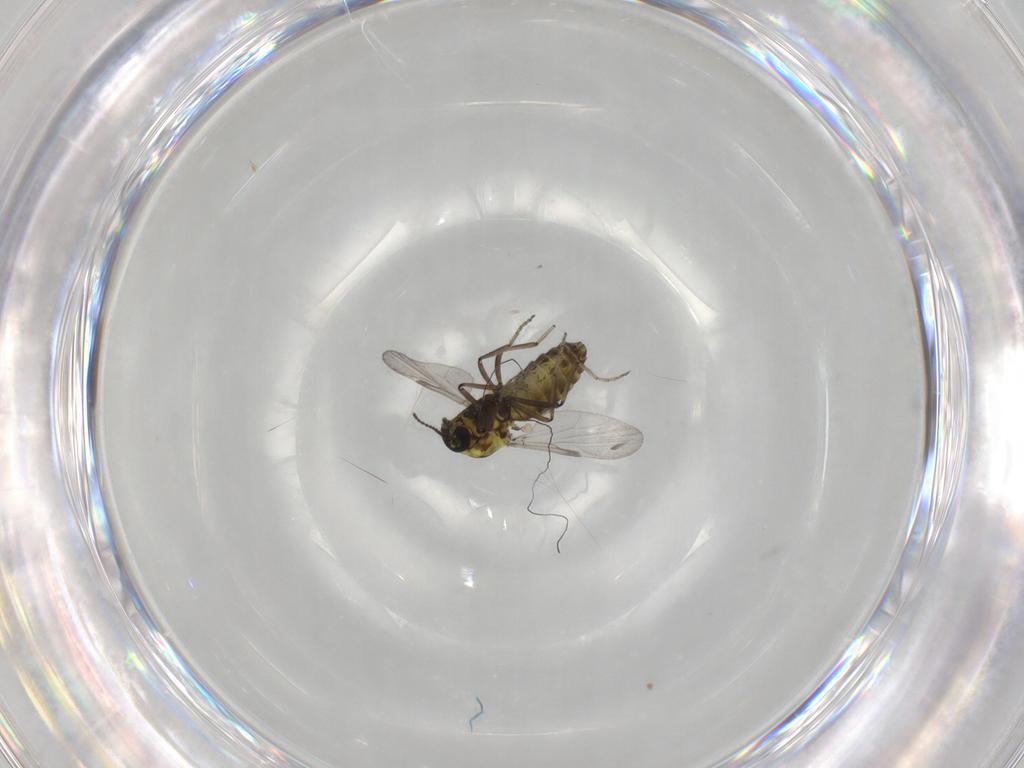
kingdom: Animalia
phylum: Arthropoda
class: Insecta
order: Diptera
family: Ceratopogonidae
